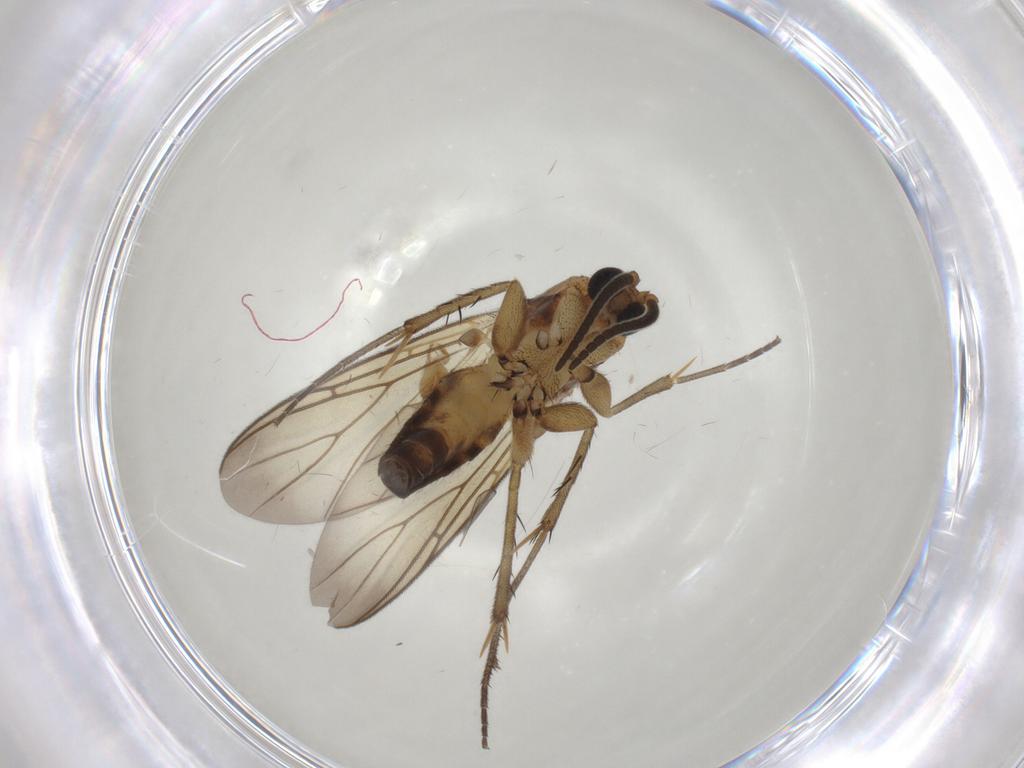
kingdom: Animalia
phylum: Arthropoda
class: Insecta
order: Diptera
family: Mycetophilidae
